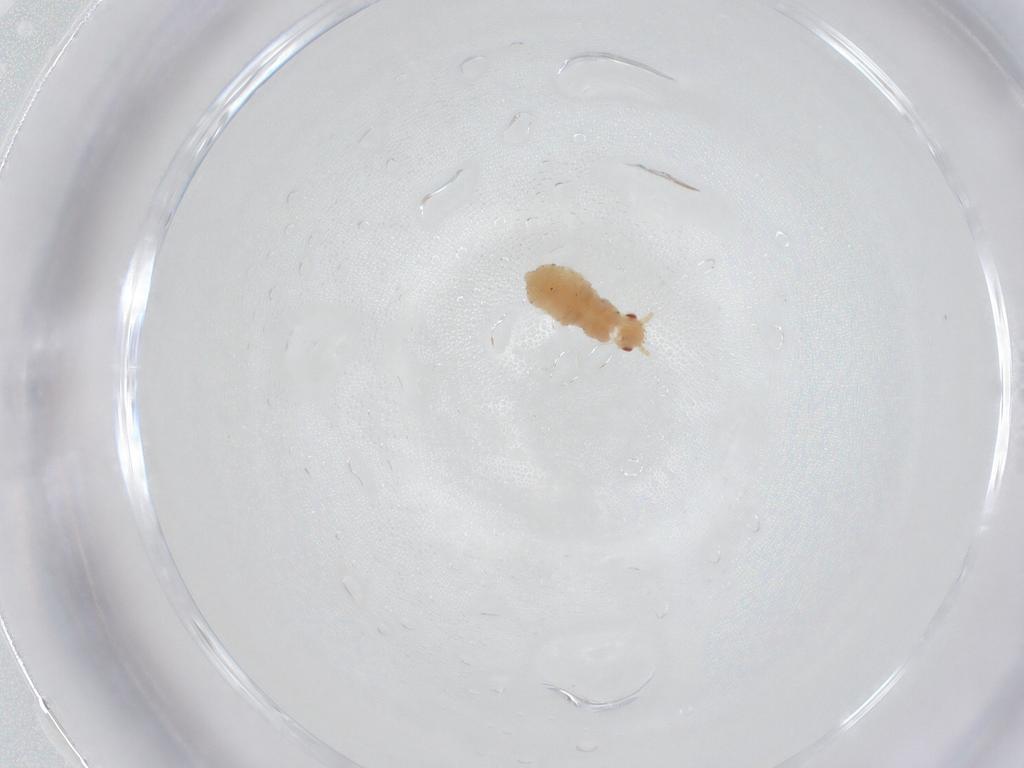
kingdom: Animalia
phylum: Arthropoda
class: Insecta
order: Hemiptera
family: Aphididae
